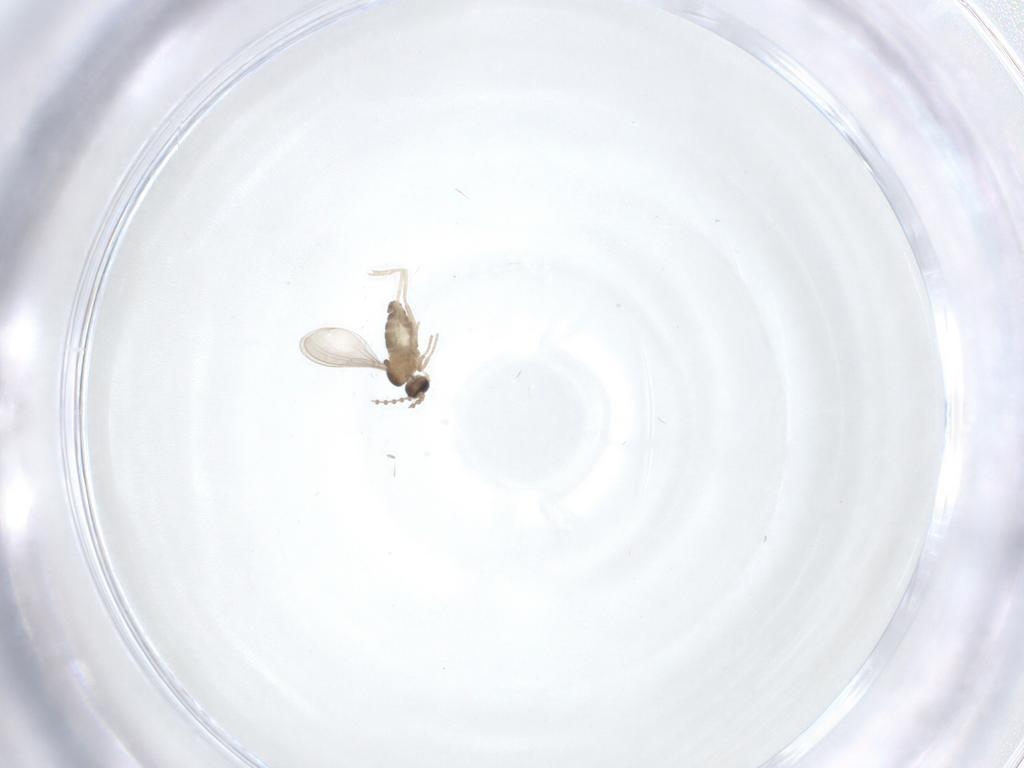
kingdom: Animalia
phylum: Arthropoda
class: Insecta
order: Diptera
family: Cecidomyiidae
